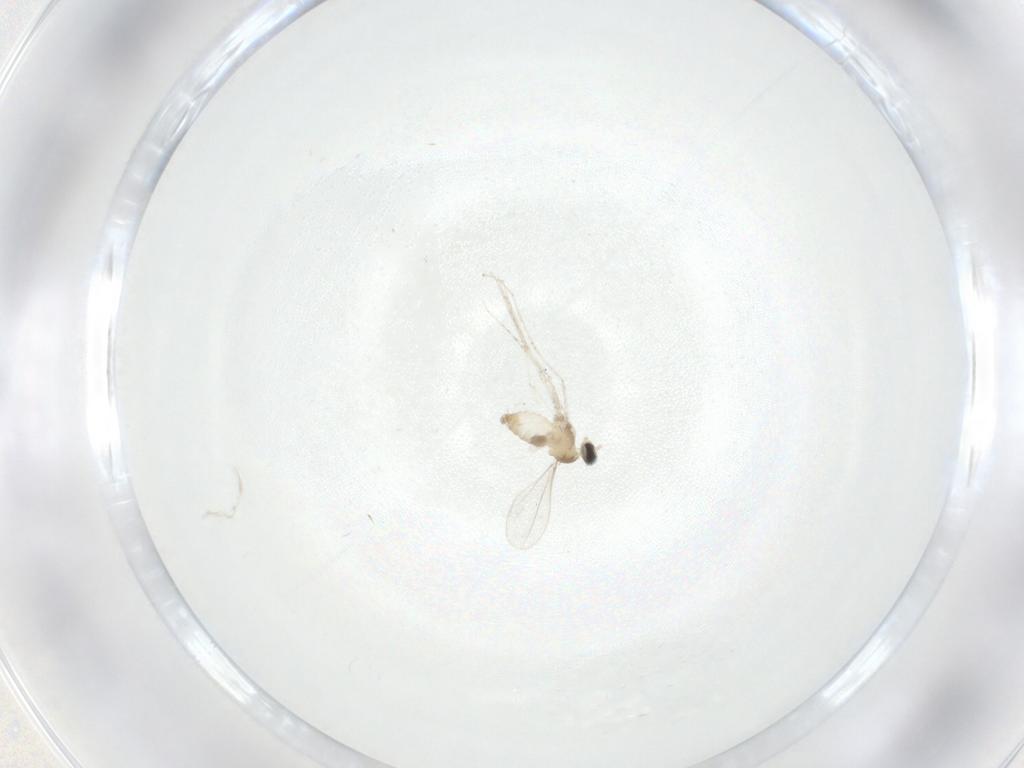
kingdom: Animalia
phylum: Arthropoda
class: Insecta
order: Diptera
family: Cecidomyiidae
